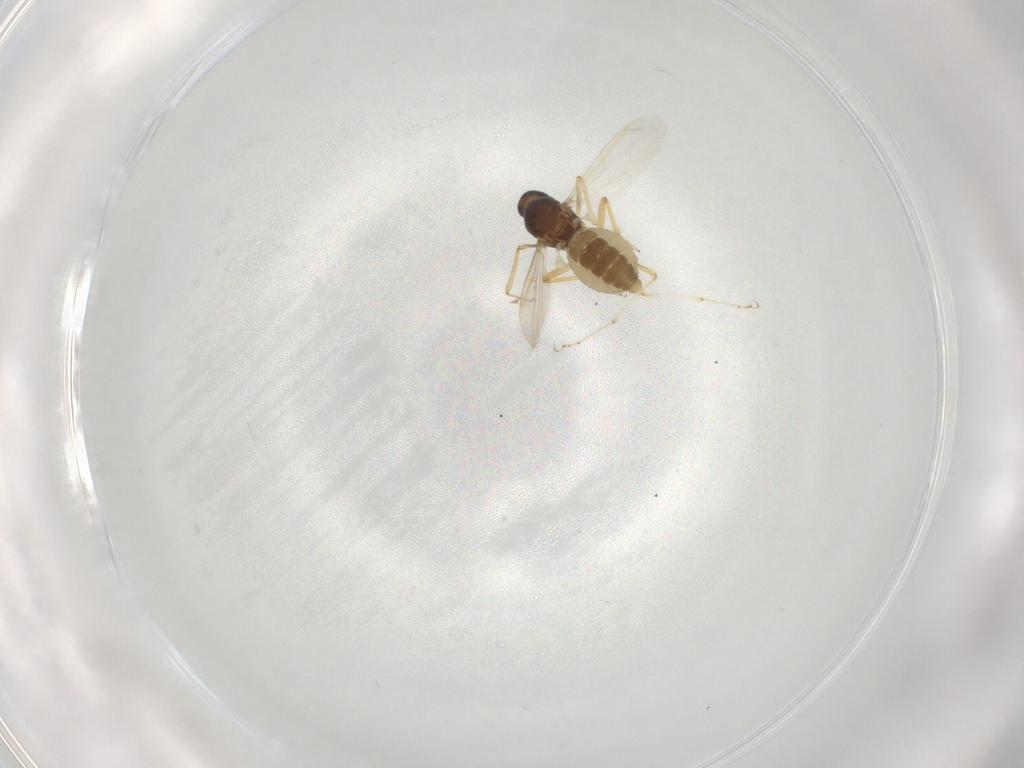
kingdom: Animalia
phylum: Arthropoda
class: Insecta
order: Diptera
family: Ceratopogonidae
